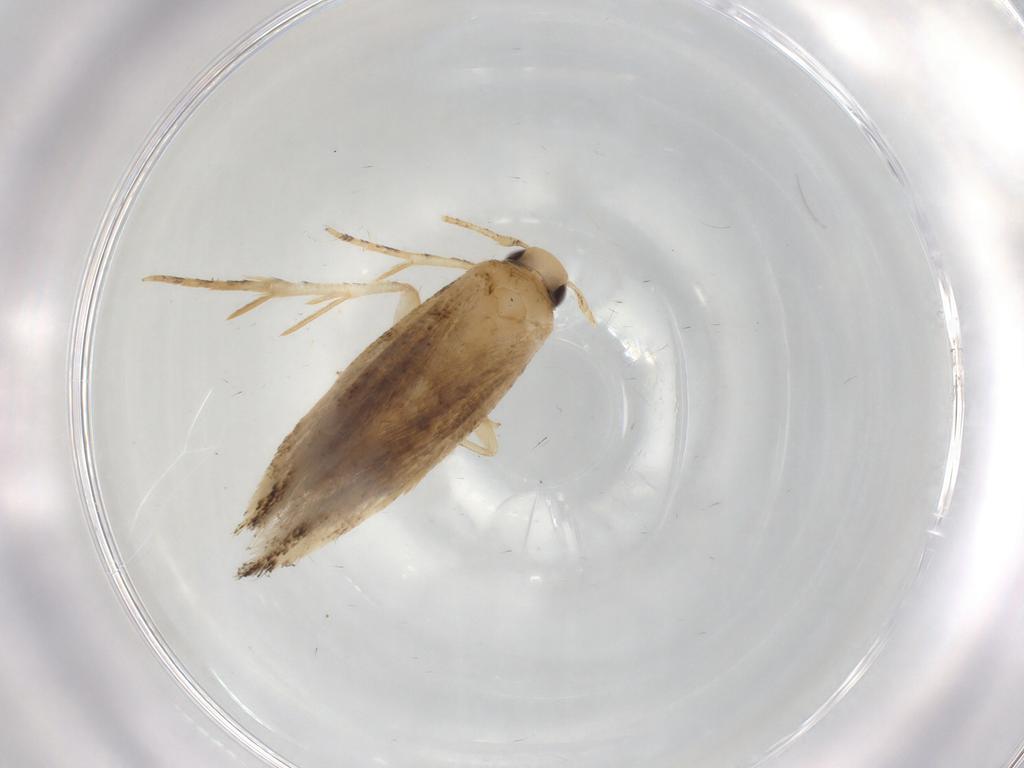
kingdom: Animalia
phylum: Arthropoda
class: Insecta
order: Lepidoptera
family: Gelechiidae
